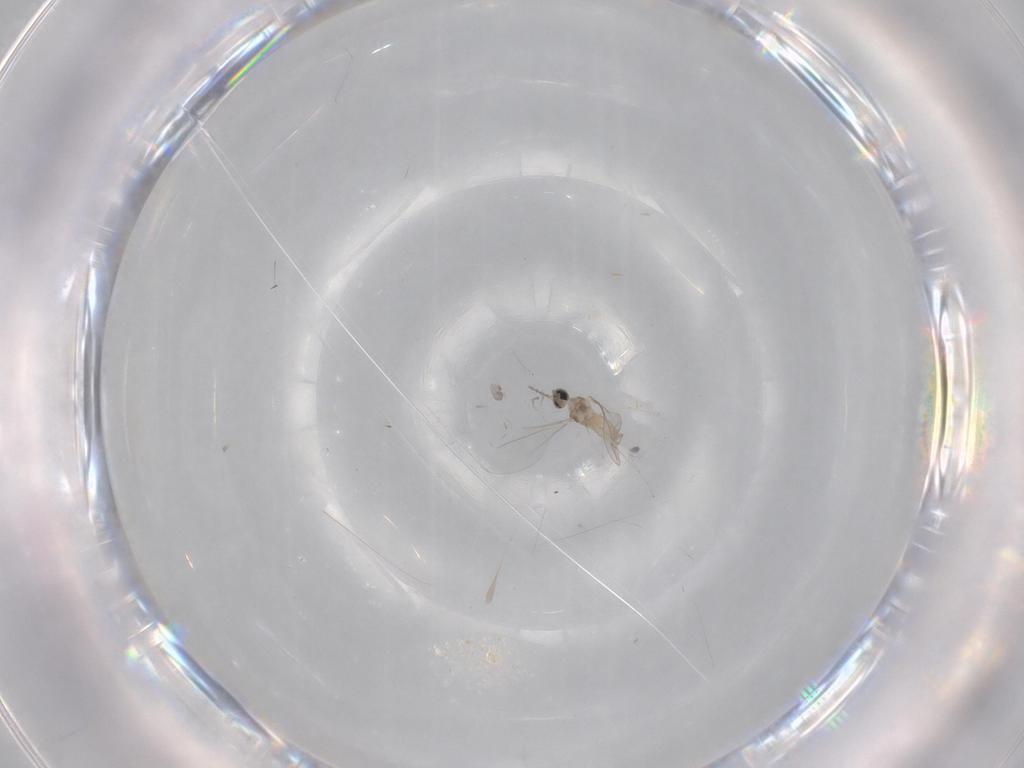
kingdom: Animalia
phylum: Arthropoda
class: Insecta
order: Diptera
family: Cecidomyiidae
